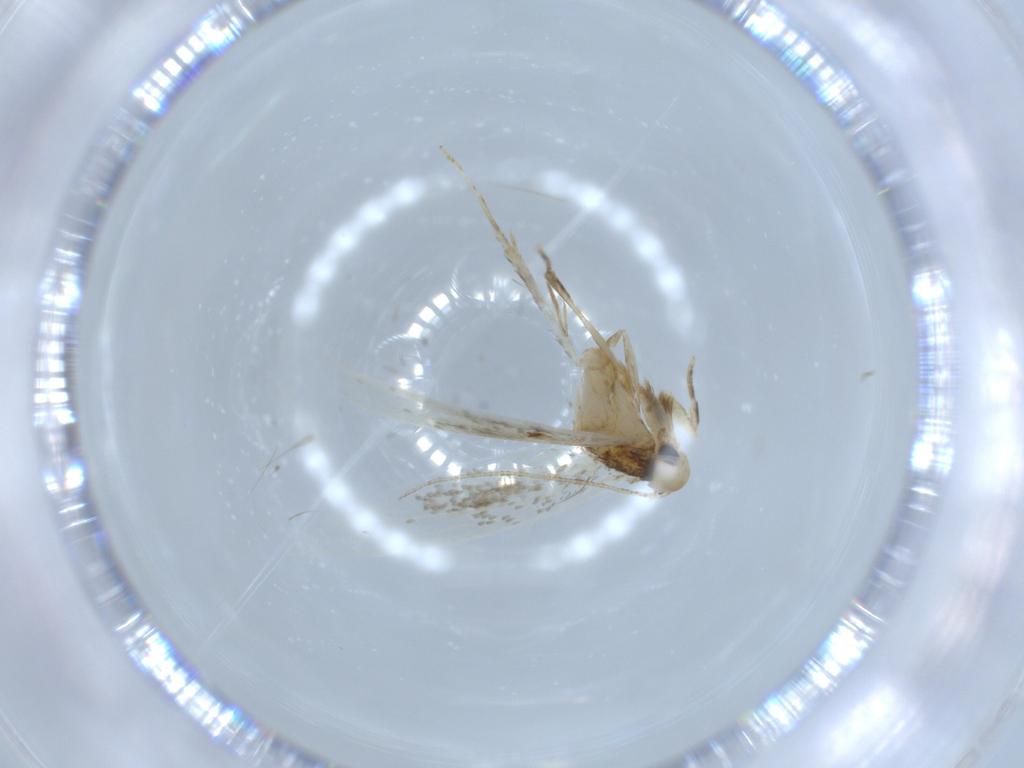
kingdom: Animalia
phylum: Arthropoda
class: Insecta
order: Lepidoptera
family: Tineidae
